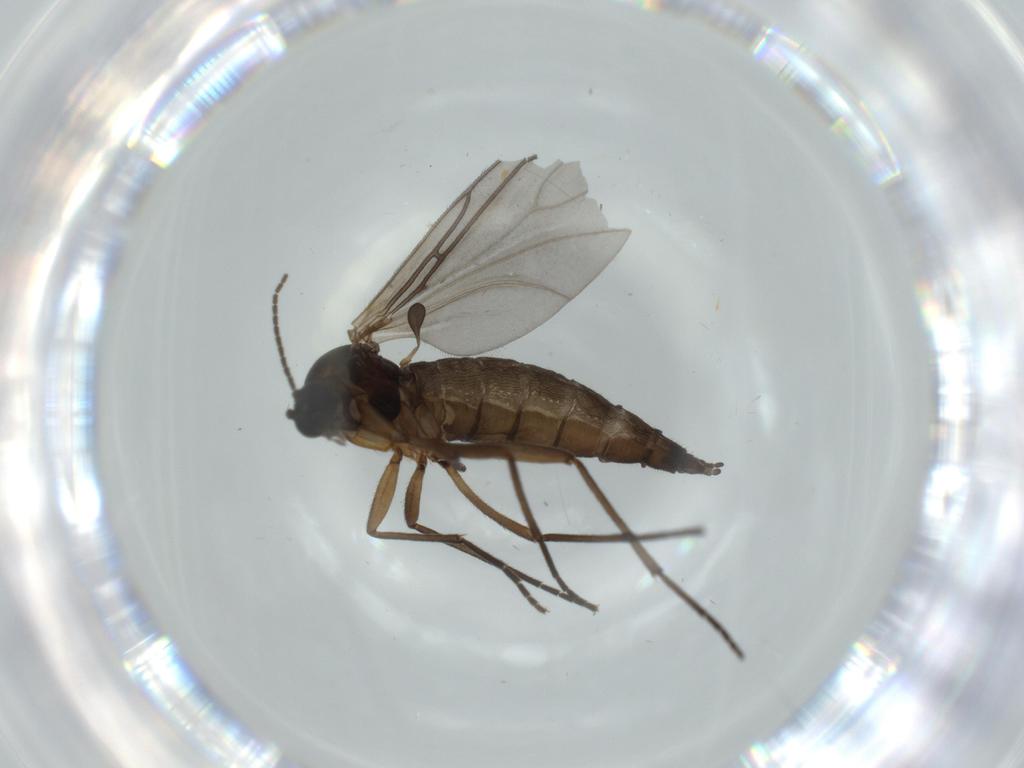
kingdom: Animalia
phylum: Arthropoda
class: Insecta
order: Diptera
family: Sciaridae
